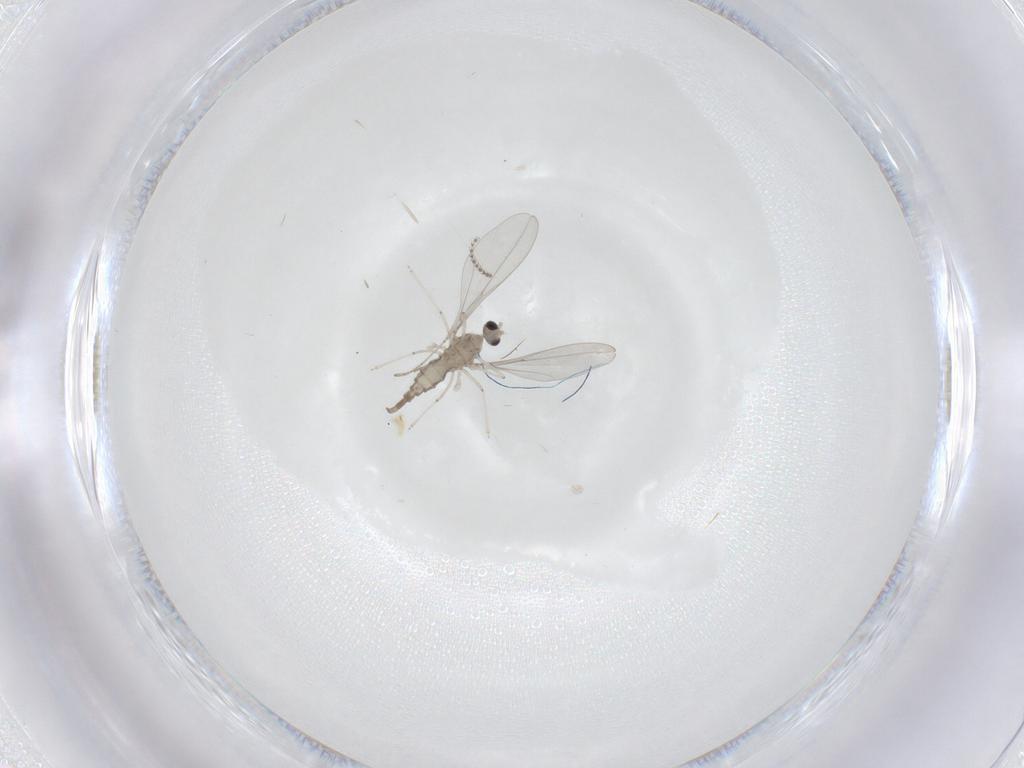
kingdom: Animalia
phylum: Arthropoda
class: Insecta
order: Diptera
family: Cecidomyiidae
